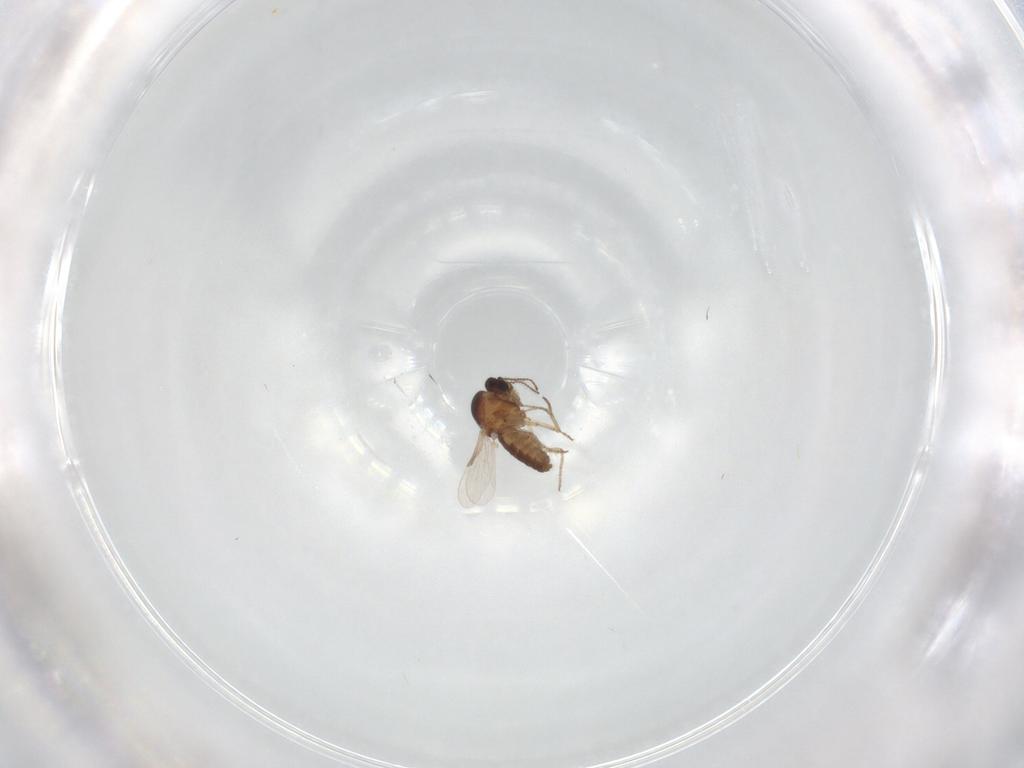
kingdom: Animalia
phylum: Arthropoda
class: Insecta
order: Diptera
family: Ceratopogonidae
